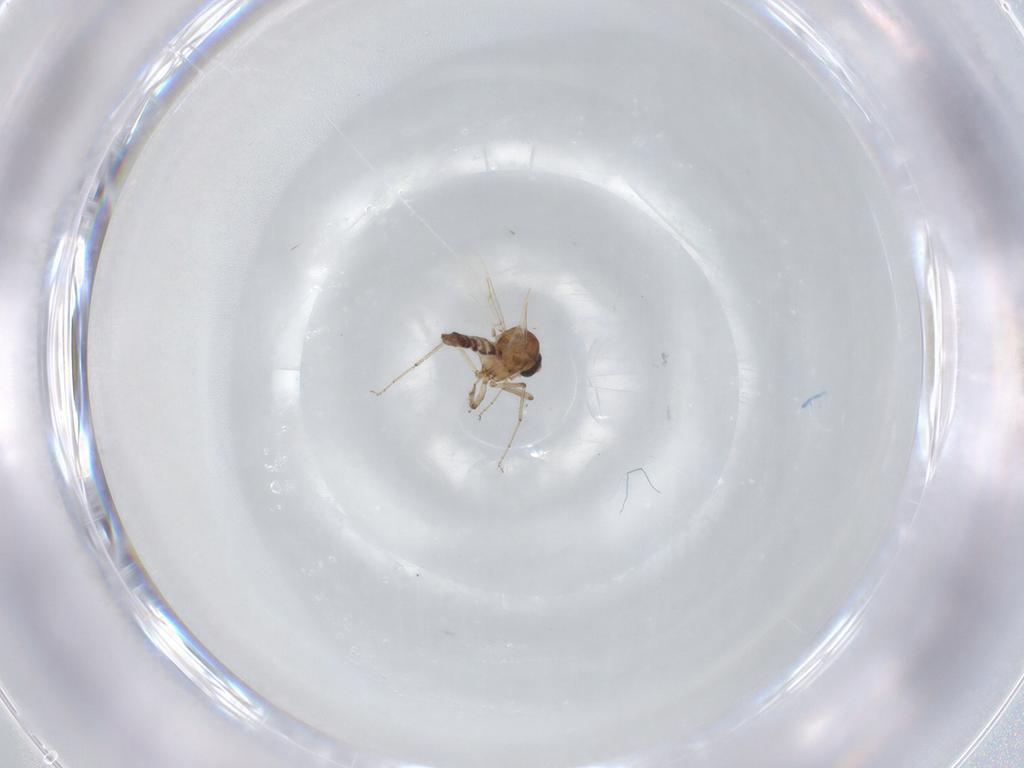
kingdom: Animalia
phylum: Arthropoda
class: Insecta
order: Diptera
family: Ceratopogonidae
